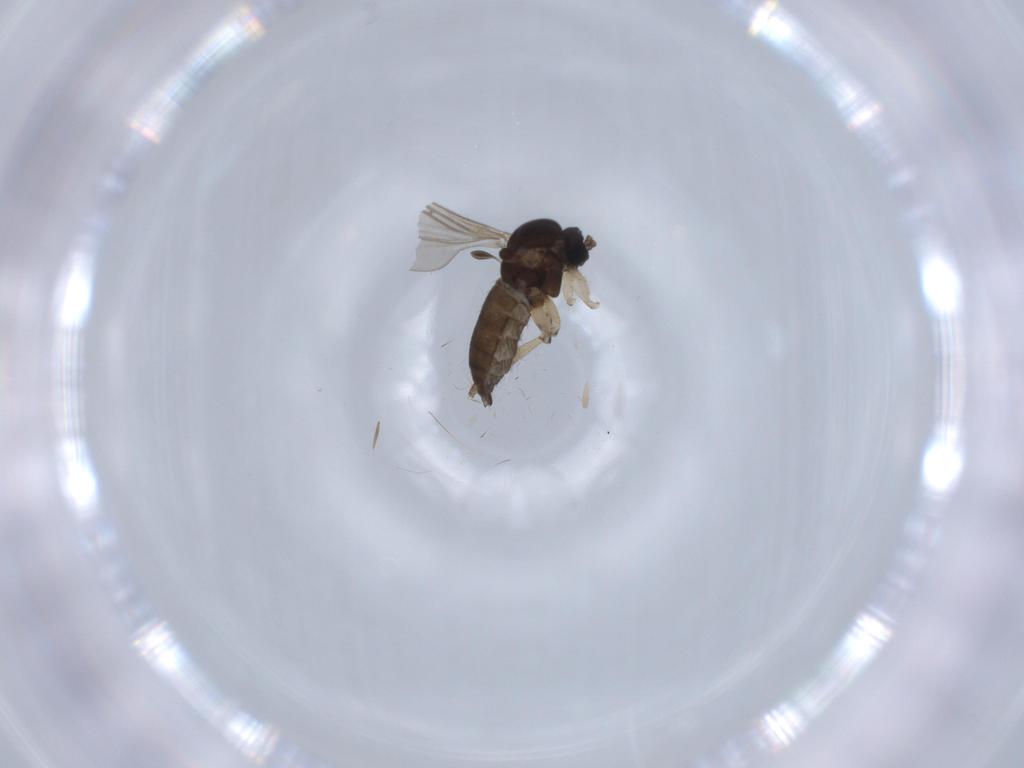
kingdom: Animalia
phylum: Arthropoda
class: Insecta
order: Diptera
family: Sciaridae
